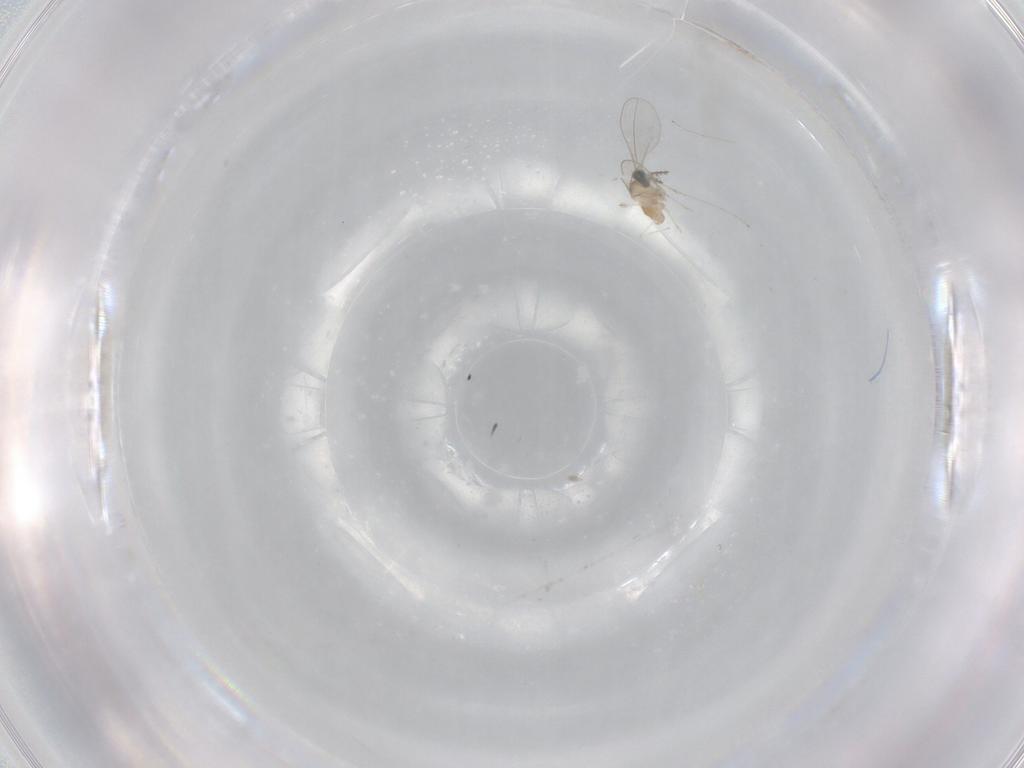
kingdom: Animalia
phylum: Arthropoda
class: Insecta
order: Diptera
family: Cecidomyiidae
